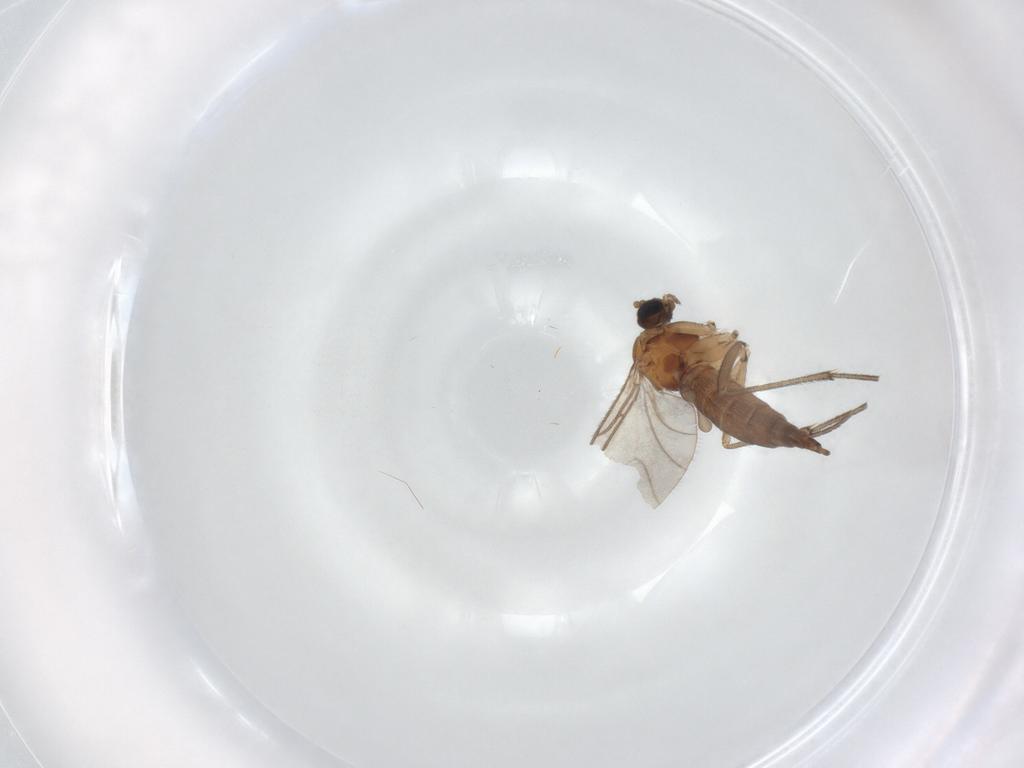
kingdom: Animalia
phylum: Arthropoda
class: Insecta
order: Diptera
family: Sciaridae
